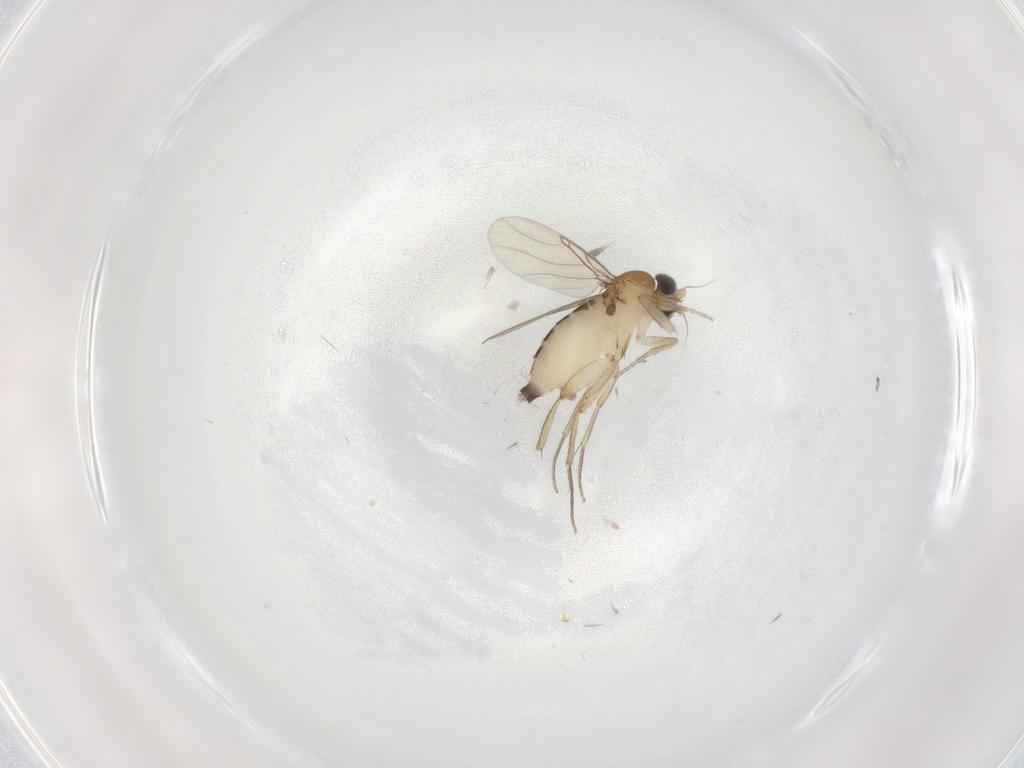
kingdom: Animalia
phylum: Arthropoda
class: Insecta
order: Diptera
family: Phoridae
